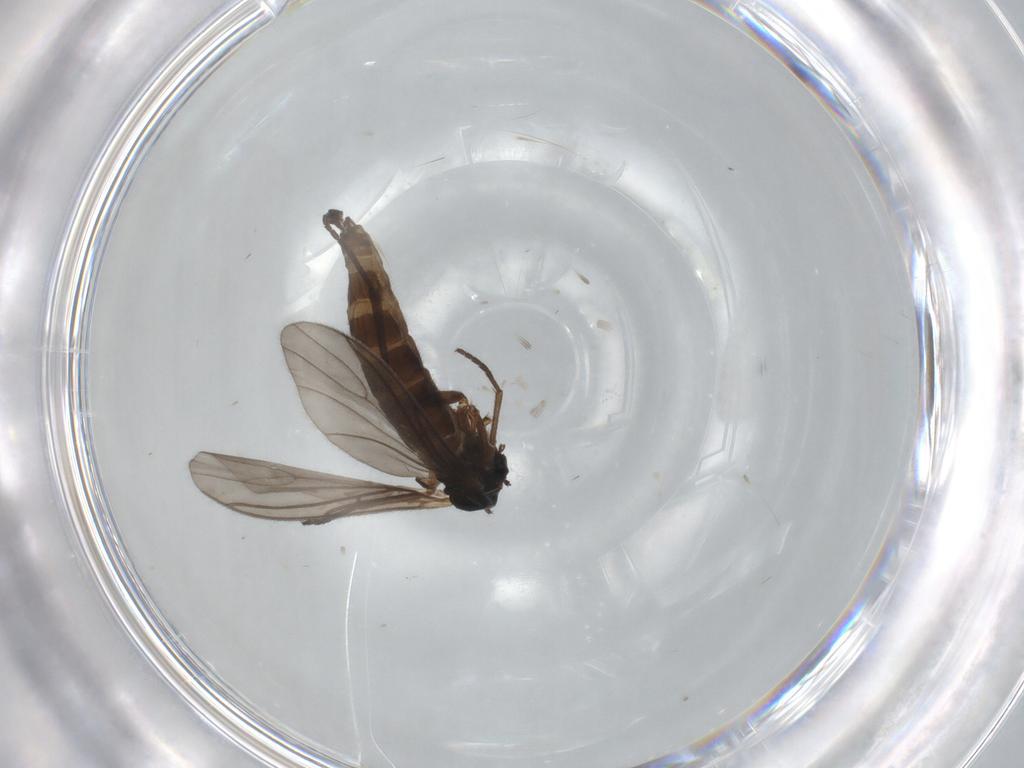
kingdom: Animalia
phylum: Arthropoda
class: Insecta
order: Diptera
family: Sciaridae
